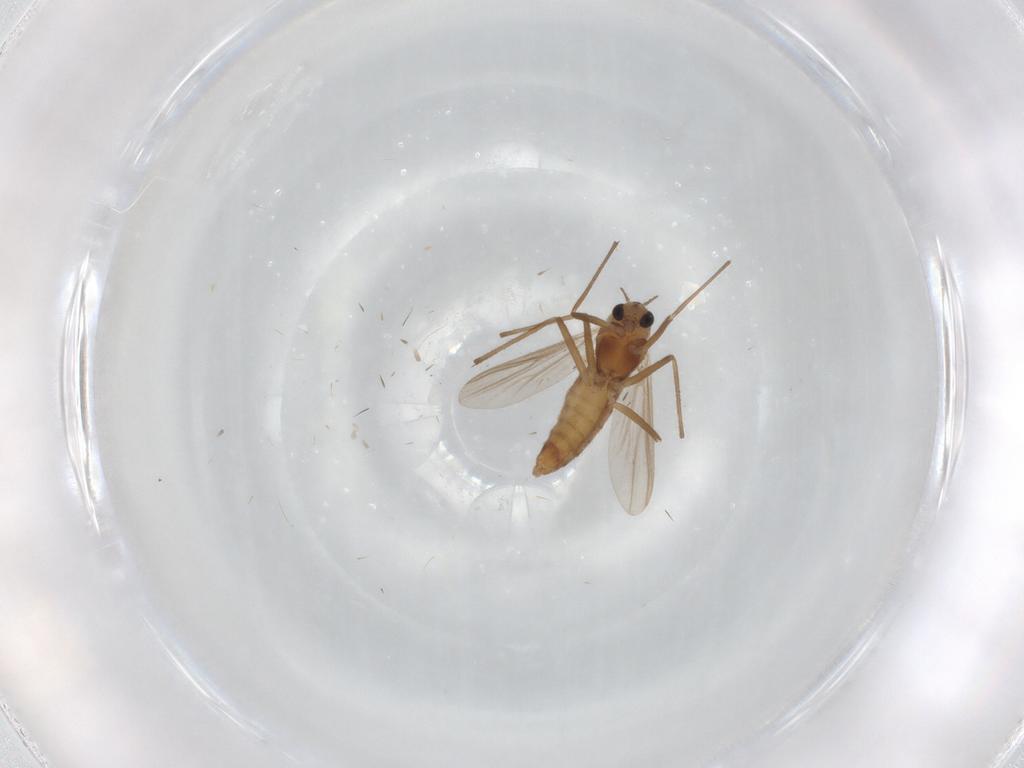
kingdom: Animalia
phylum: Arthropoda
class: Insecta
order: Diptera
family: Chironomidae
